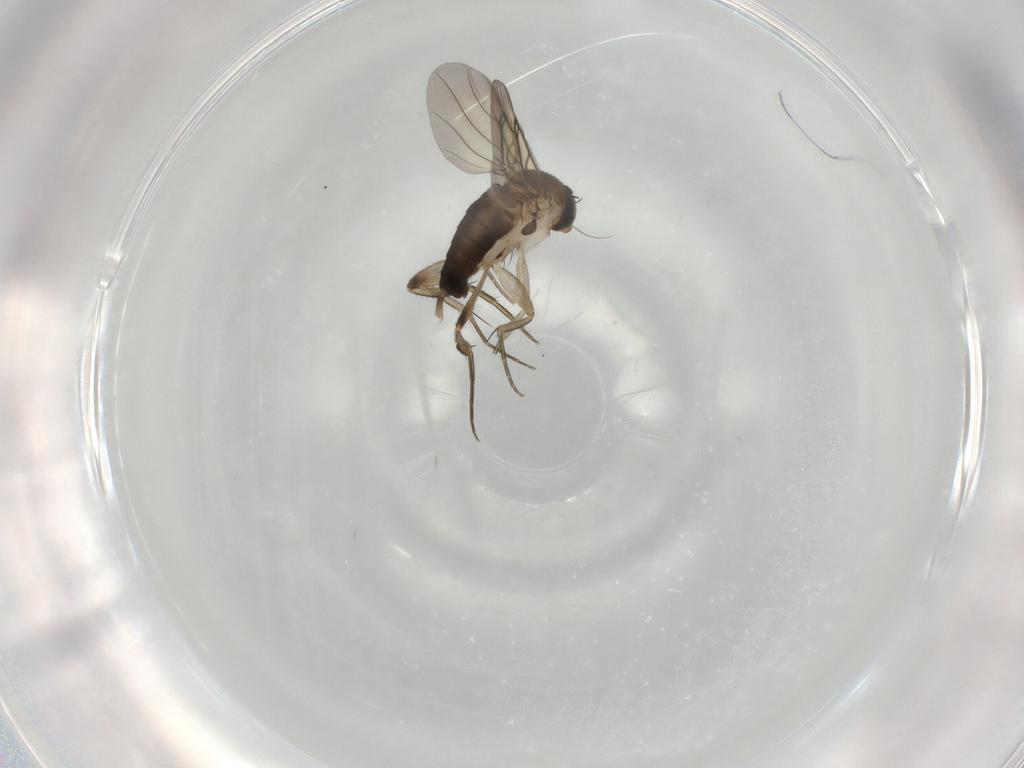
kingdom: Animalia
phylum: Arthropoda
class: Insecta
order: Diptera
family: Phoridae
